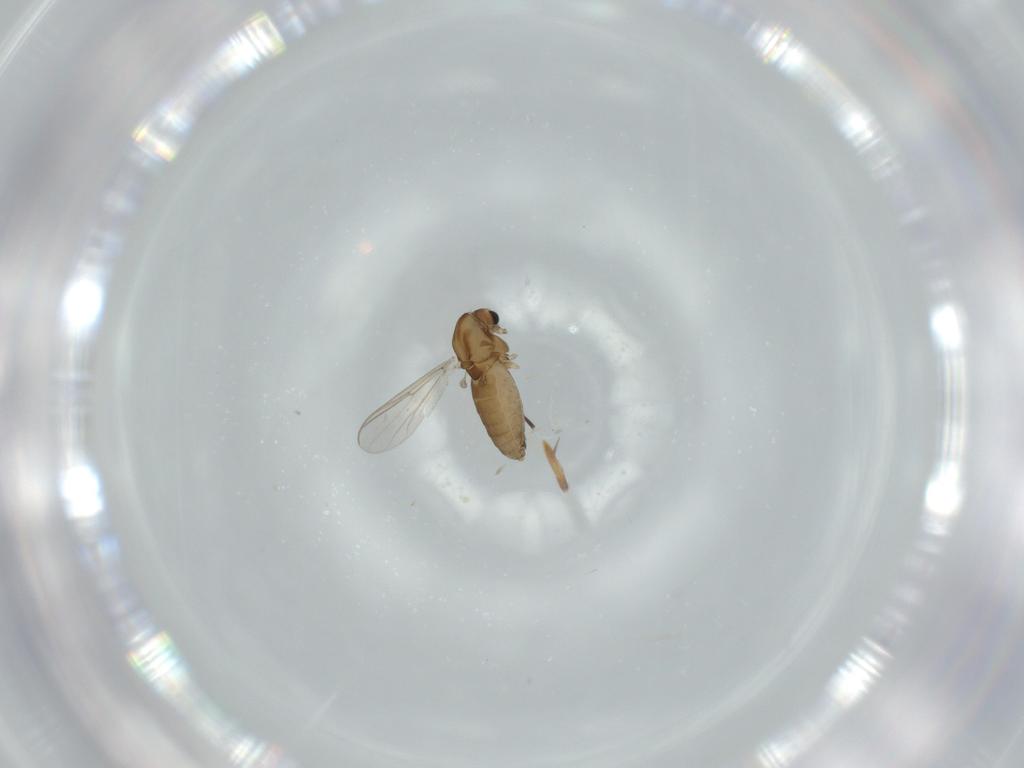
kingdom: Animalia
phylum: Arthropoda
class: Insecta
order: Diptera
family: Chironomidae
